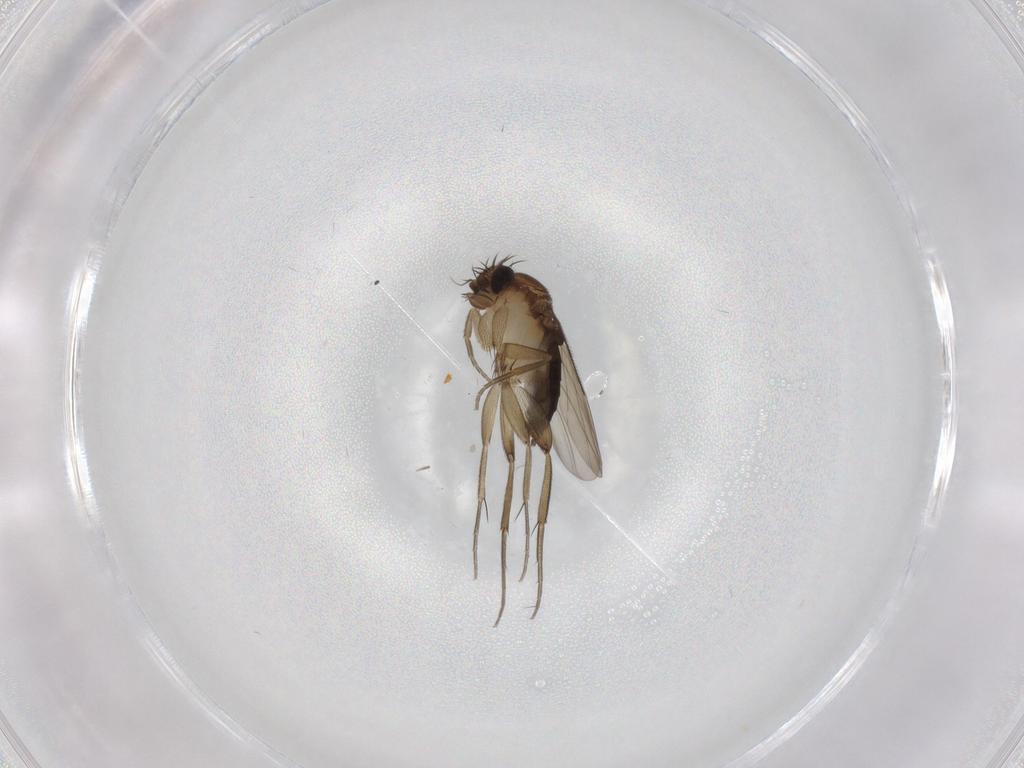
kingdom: Animalia
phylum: Arthropoda
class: Insecta
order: Diptera
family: Phoridae
